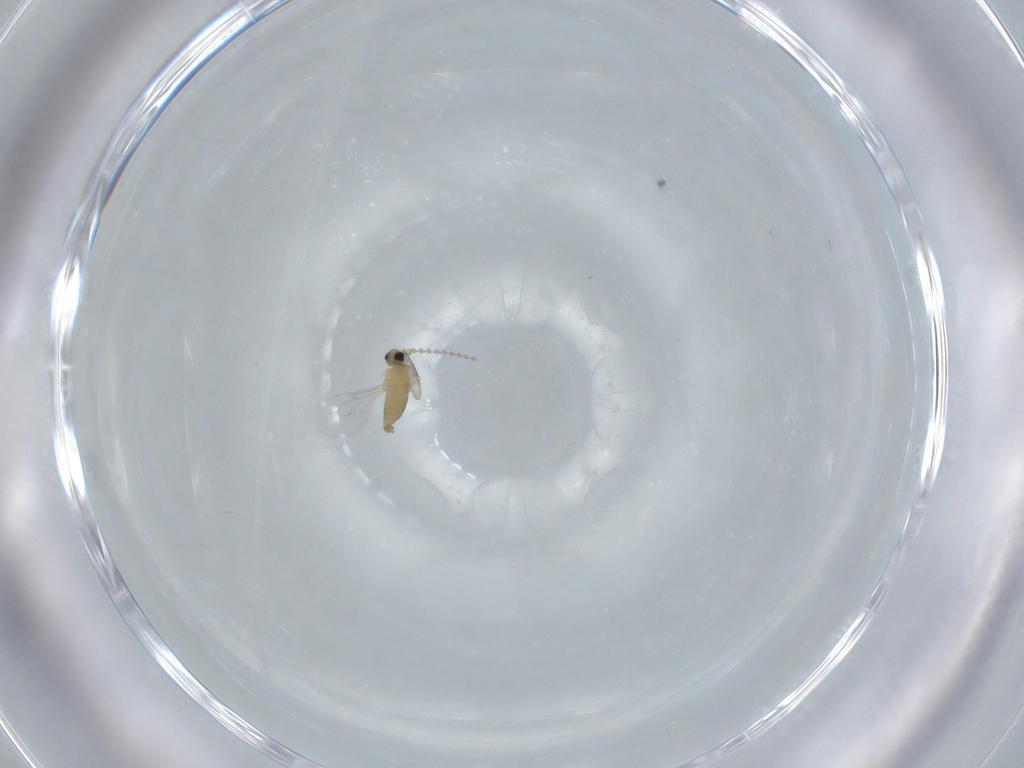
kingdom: Animalia
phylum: Arthropoda
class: Insecta
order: Diptera
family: Cecidomyiidae
